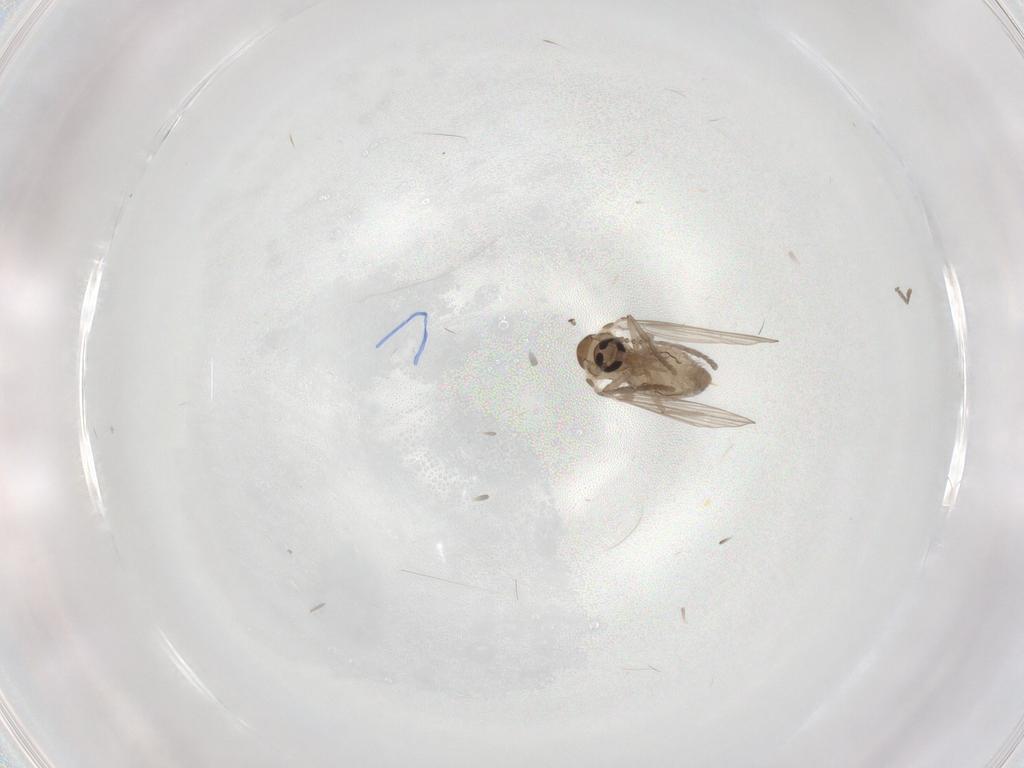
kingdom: Animalia
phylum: Arthropoda
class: Insecta
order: Diptera
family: Psychodidae
